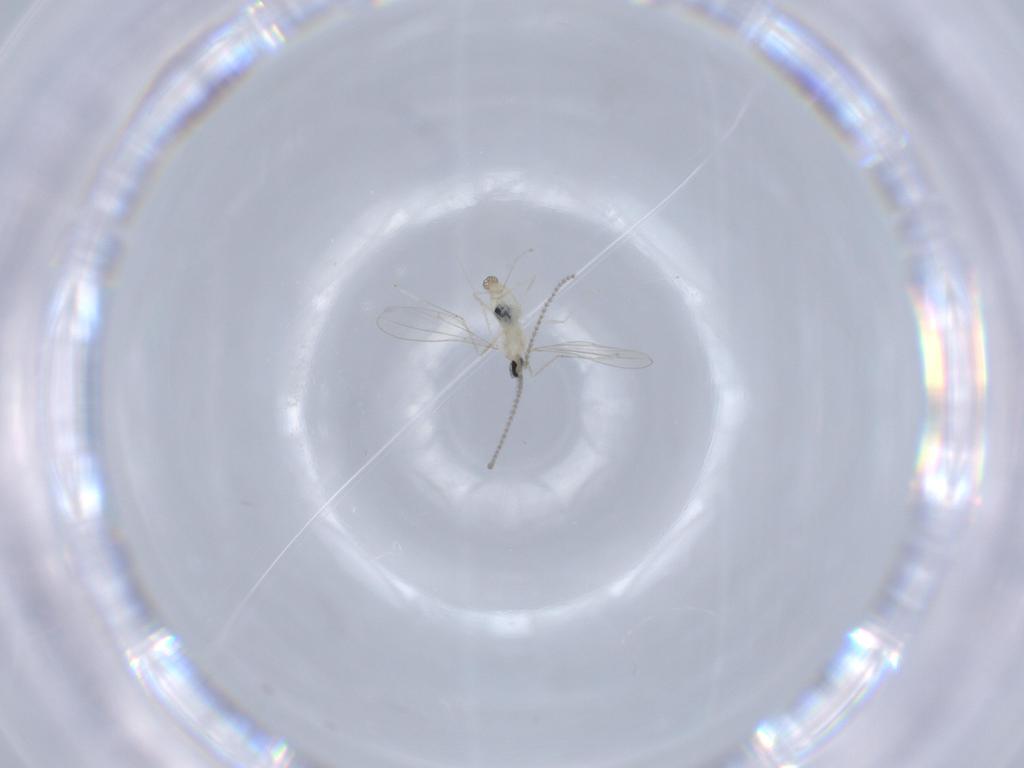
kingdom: Animalia
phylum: Arthropoda
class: Insecta
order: Diptera
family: Cecidomyiidae
